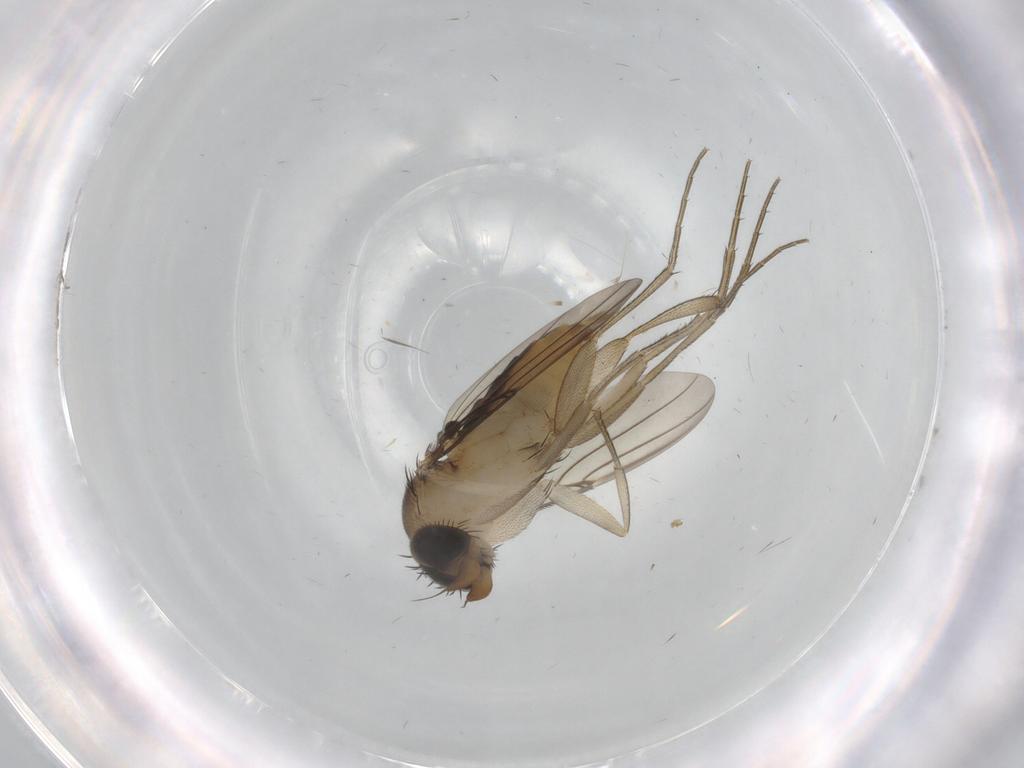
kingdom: Animalia
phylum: Arthropoda
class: Insecta
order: Diptera
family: Phoridae
